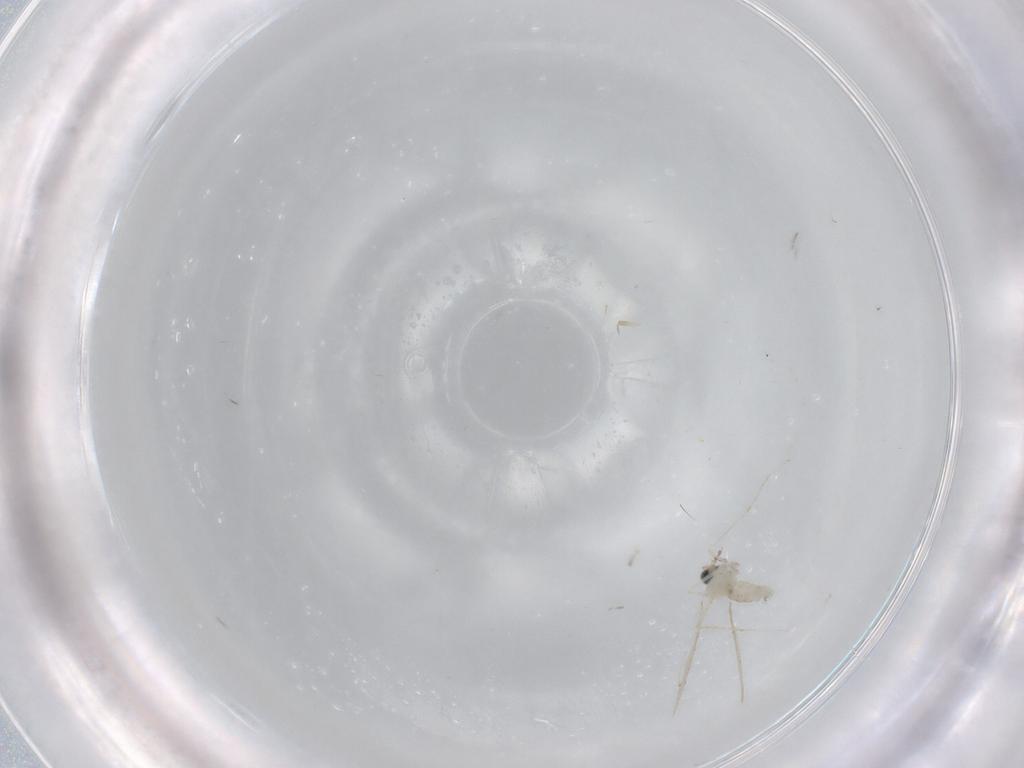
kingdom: Animalia
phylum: Arthropoda
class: Insecta
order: Diptera
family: Cecidomyiidae
